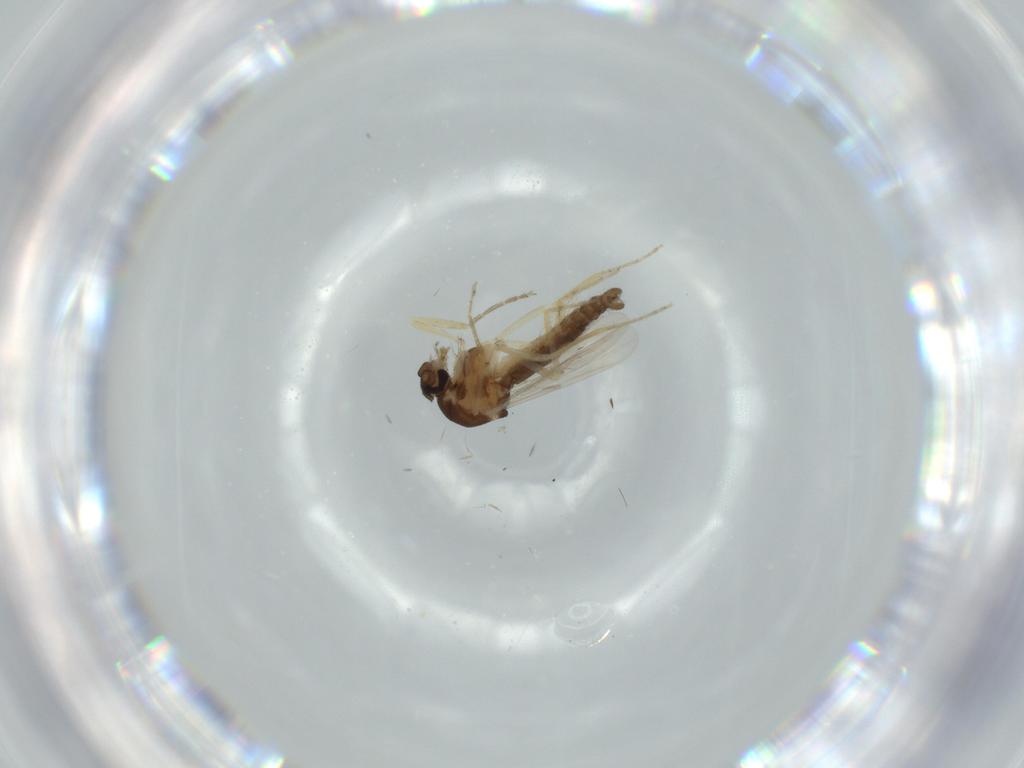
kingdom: Animalia
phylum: Arthropoda
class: Insecta
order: Diptera
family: Ceratopogonidae
